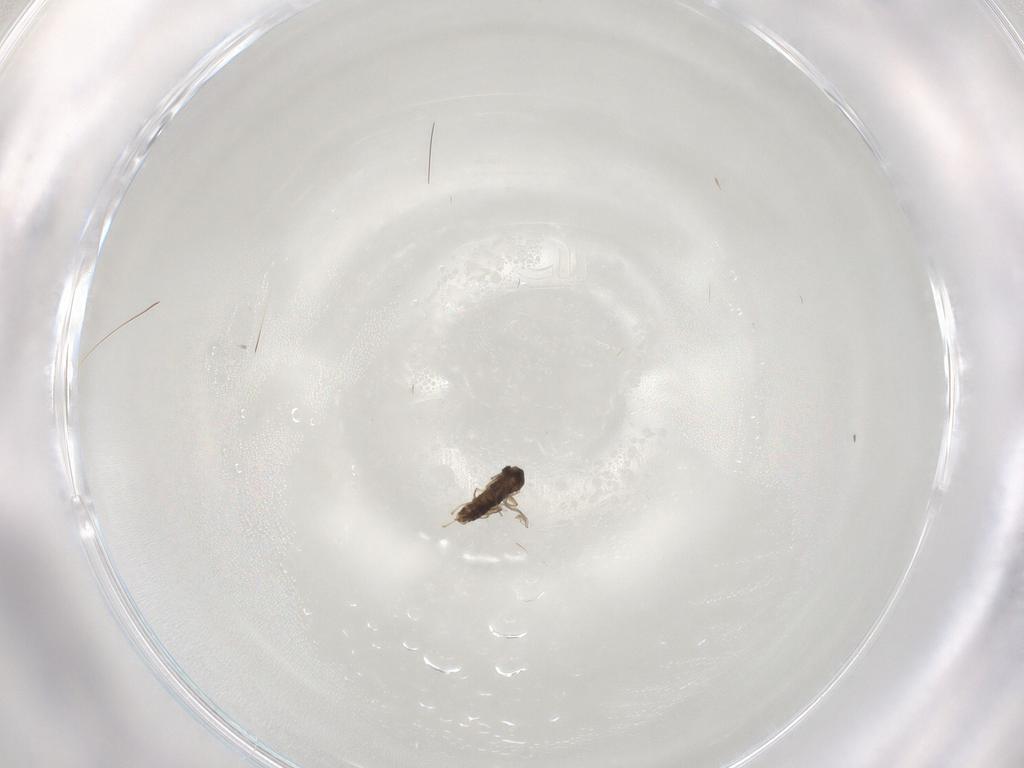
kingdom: Animalia
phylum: Arthropoda
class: Insecta
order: Diptera
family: Chironomidae
